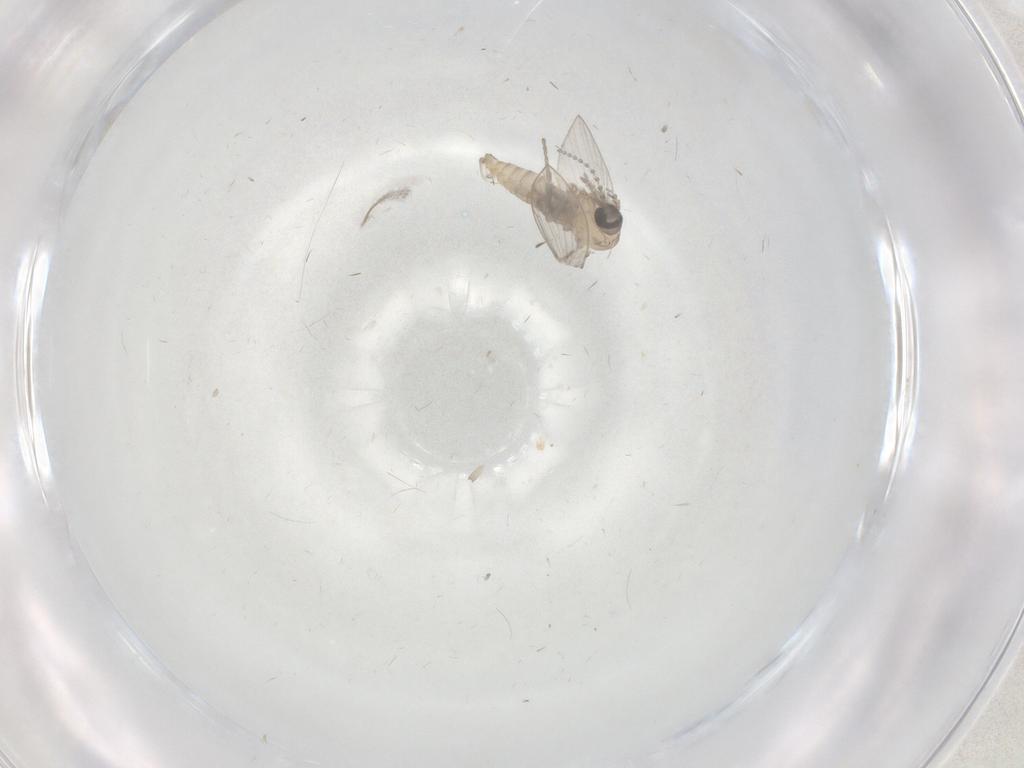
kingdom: Animalia
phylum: Arthropoda
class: Insecta
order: Diptera
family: Psychodidae
